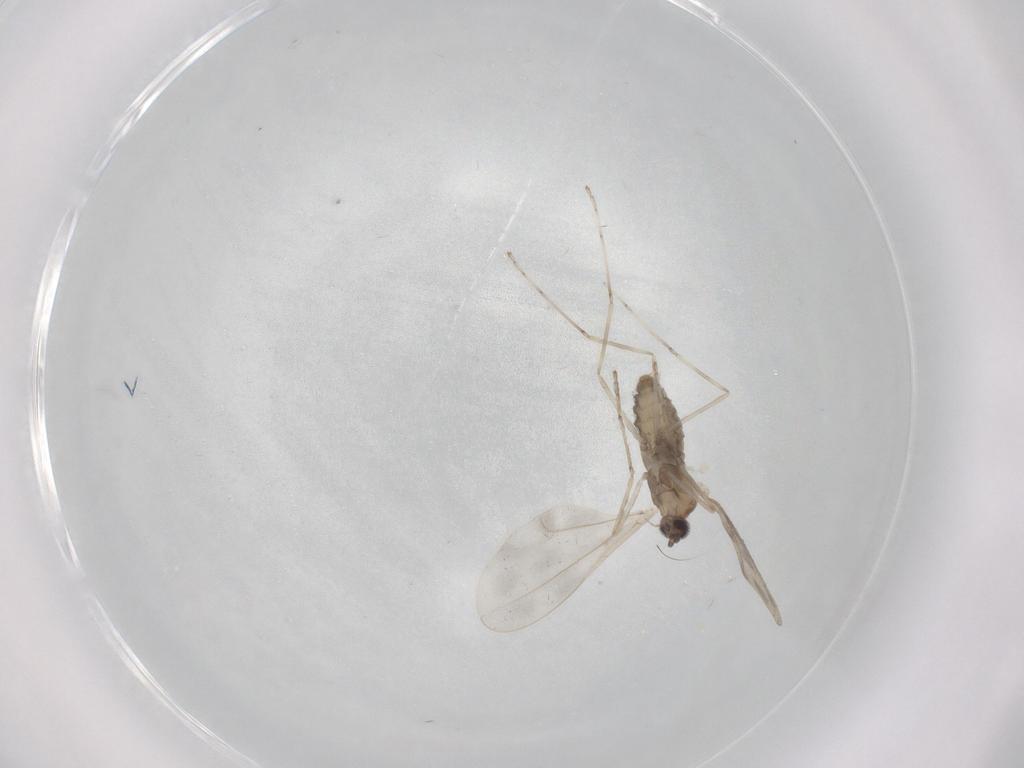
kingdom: Animalia
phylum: Arthropoda
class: Insecta
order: Diptera
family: Cecidomyiidae
